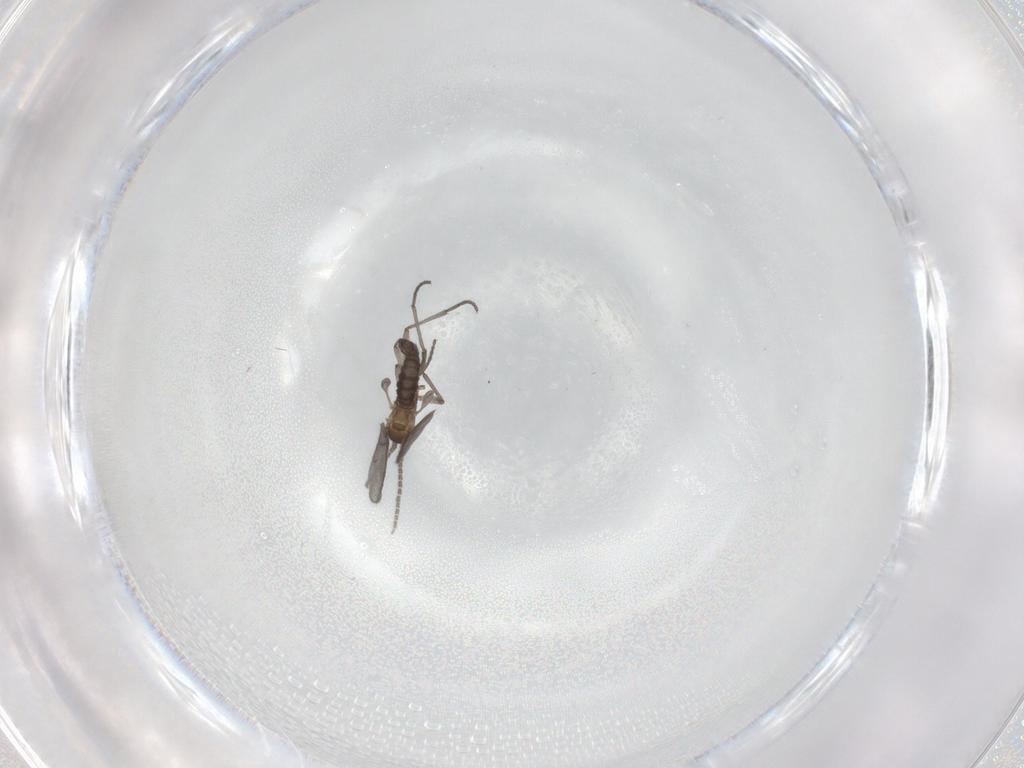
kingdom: Animalia
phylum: Arthropoda
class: Insecta
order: Diptera
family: Sciaridae
